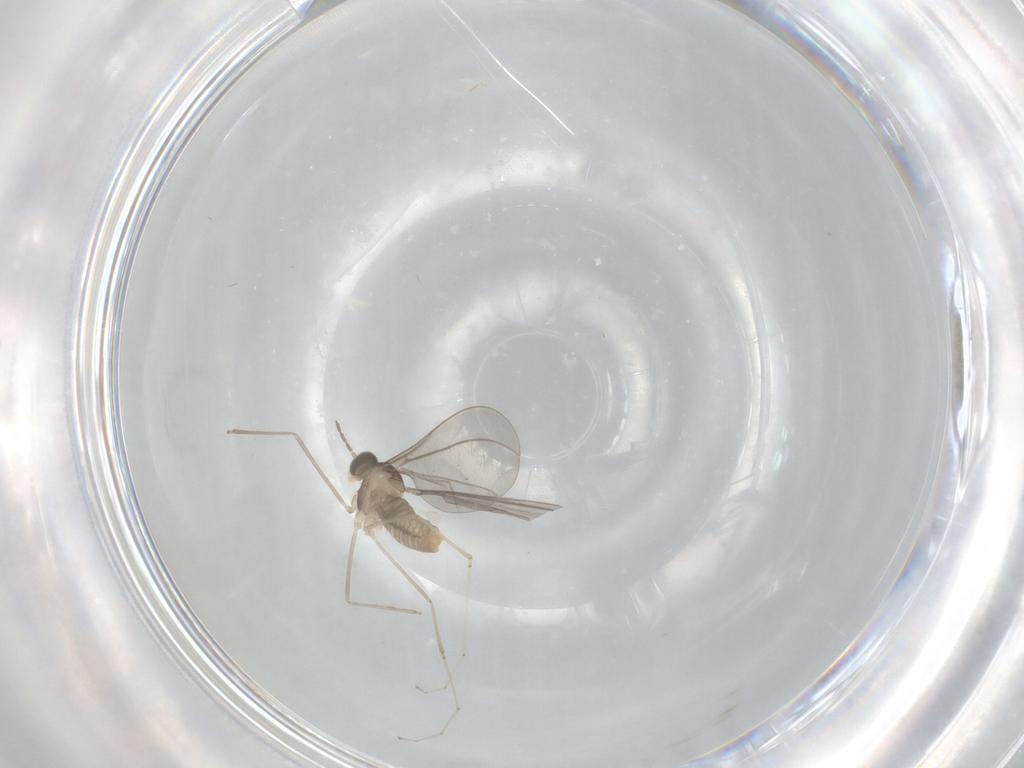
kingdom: Animalia
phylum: Arthropoda
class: Insecta
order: Diptera
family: Cecidomyiidae
